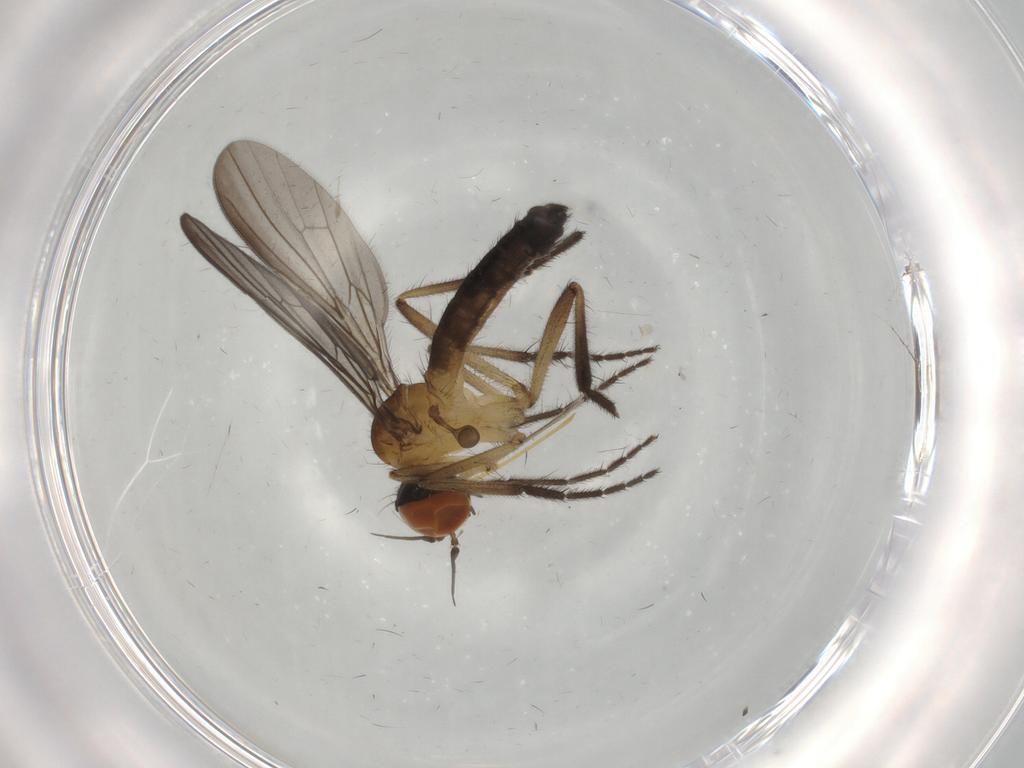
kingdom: Animalia
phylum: Arthropoda
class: Insecta
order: Diptera
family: Empididae
